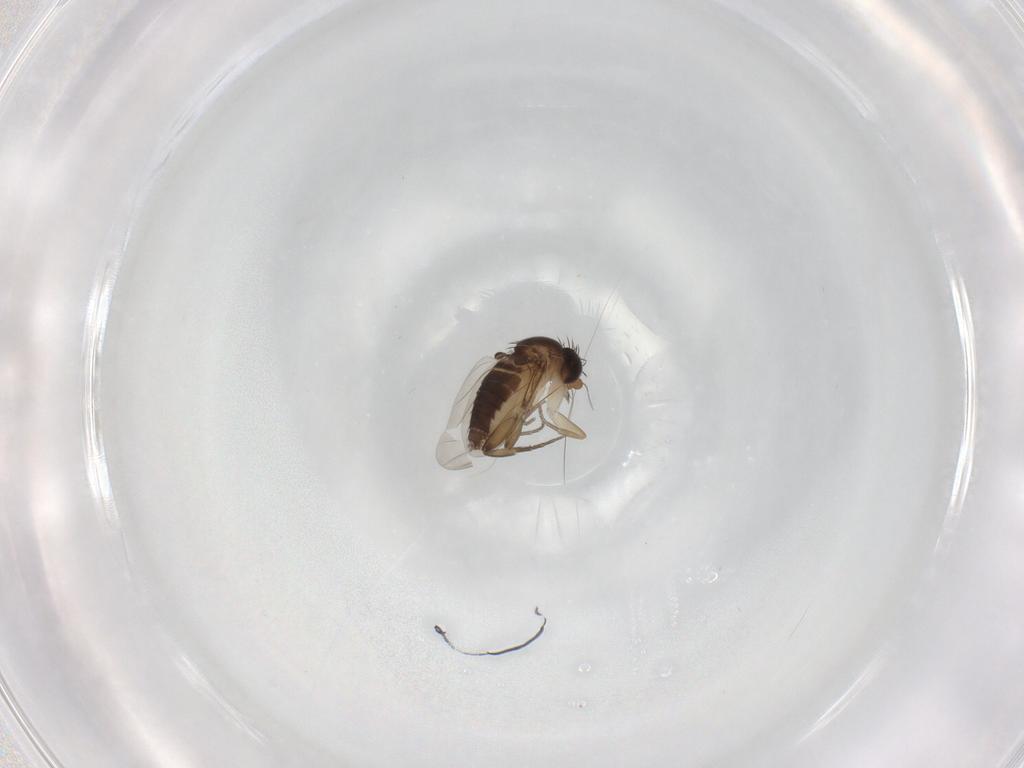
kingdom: Animalia
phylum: Arthropoda
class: Insecta
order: Diptera
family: Phoridae
